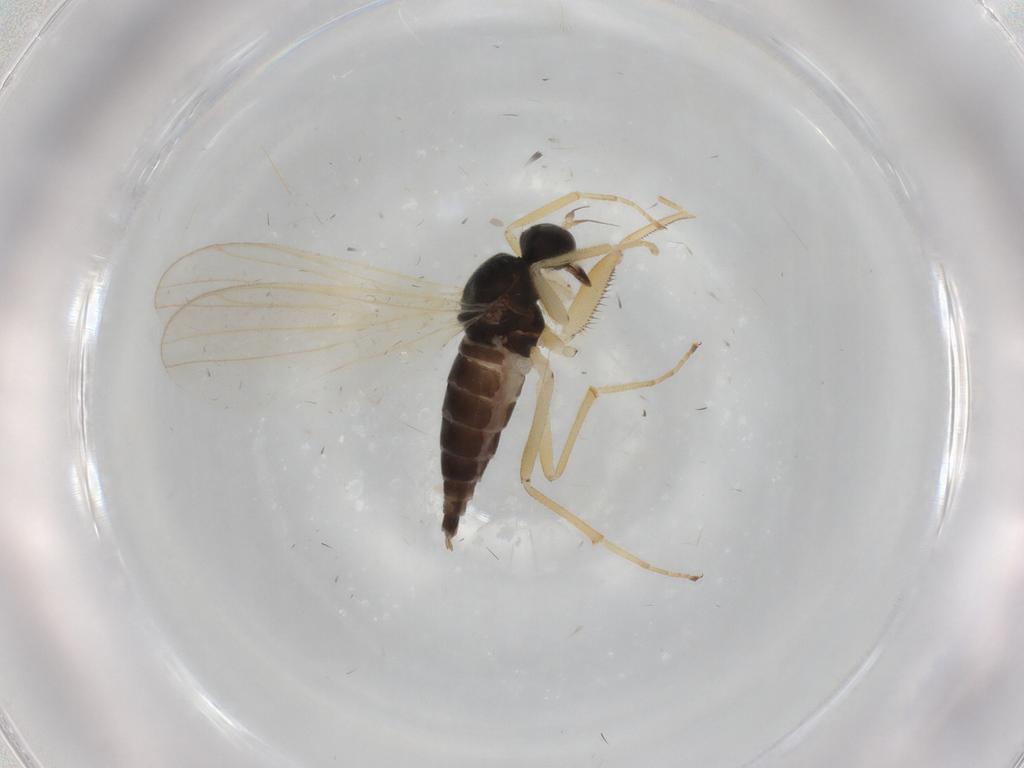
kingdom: Animalia
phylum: Arthropoda
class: Insecta
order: Diptera
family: Hybotidae
